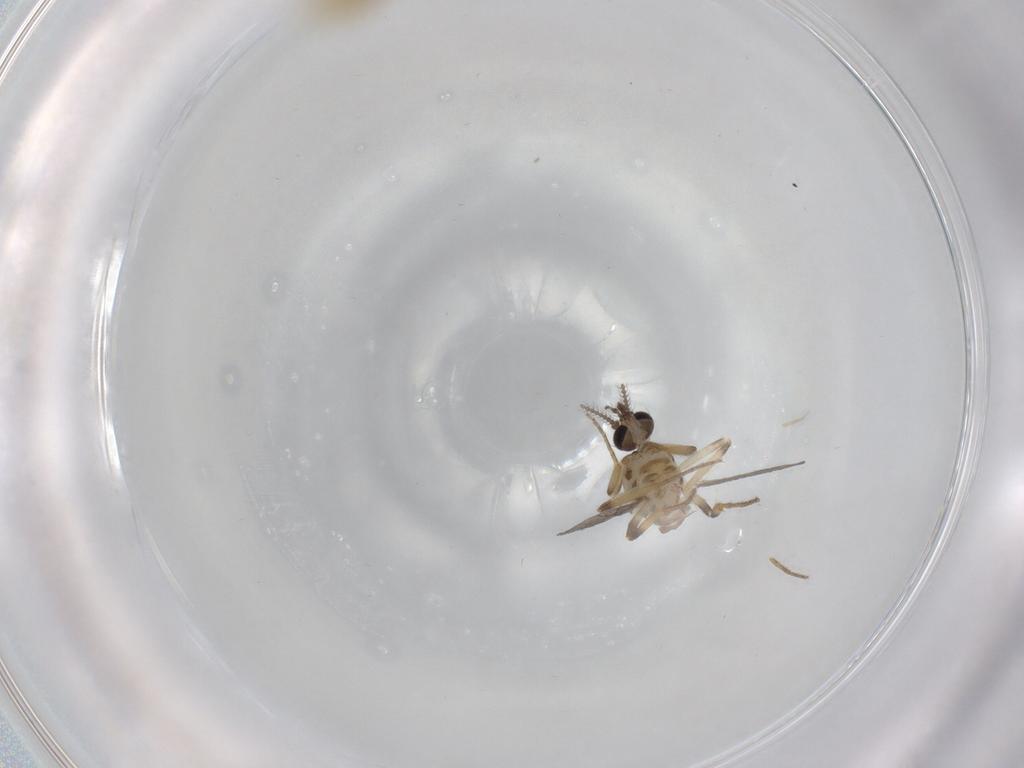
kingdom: Animalia
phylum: Arthropoda
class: Insecta
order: Diptera
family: Ceratopogonidae
